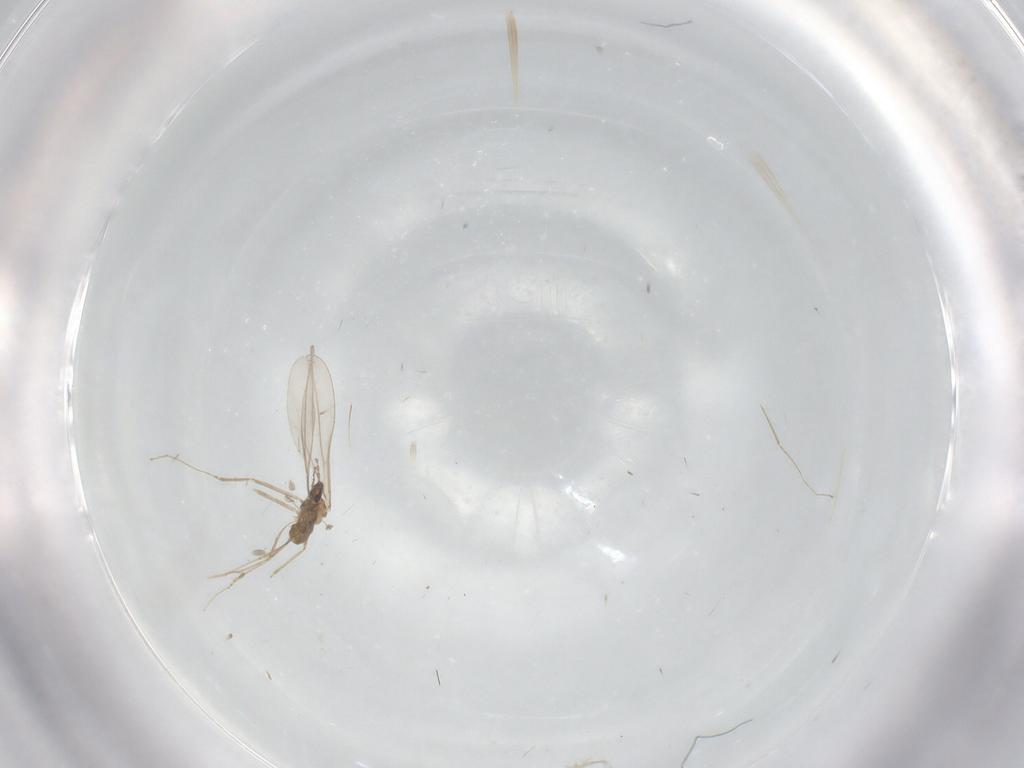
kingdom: Animalia
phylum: Arthropoda
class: Insecta
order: Diptera
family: Cecidomyiidae
